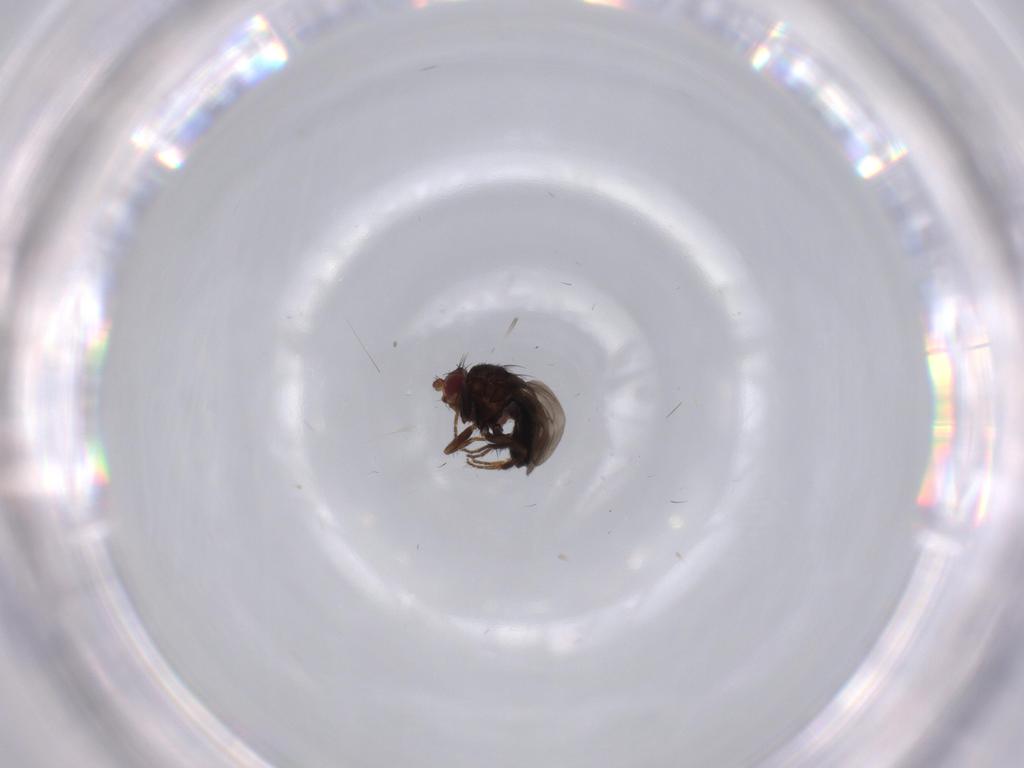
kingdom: Animalia
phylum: Arthropoda
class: Insecta
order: Diptera
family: Sphaeroceridae
